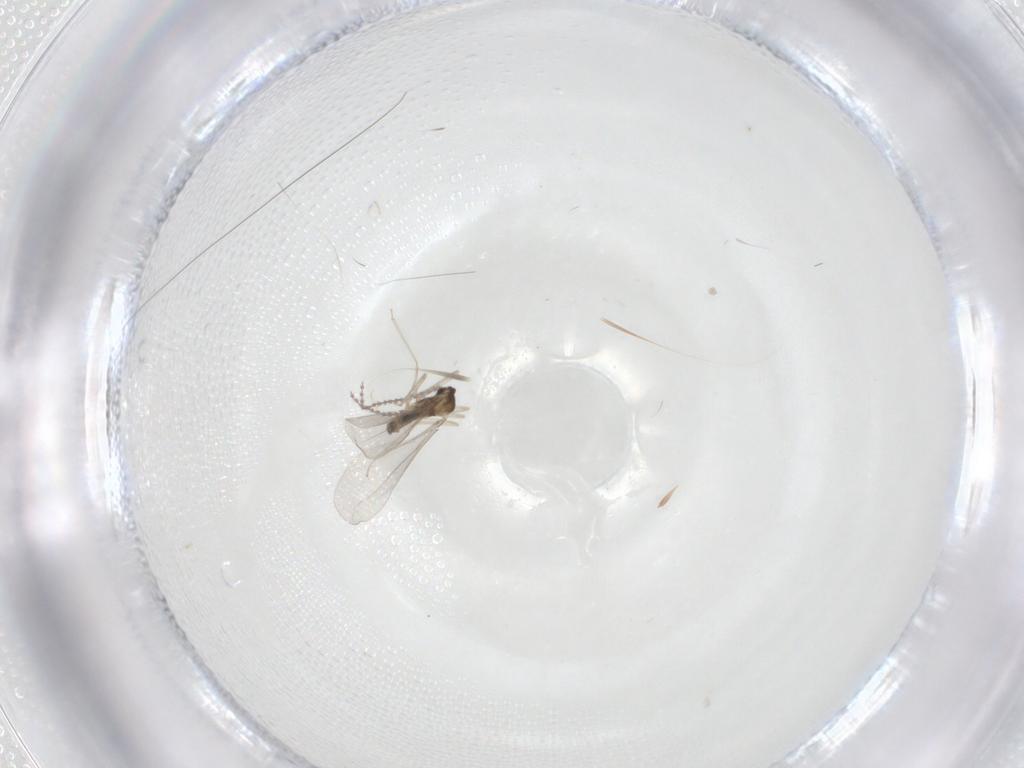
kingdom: Animalia
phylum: Arthropoda
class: Insecta
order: Diptera
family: Cecidomyiidae
